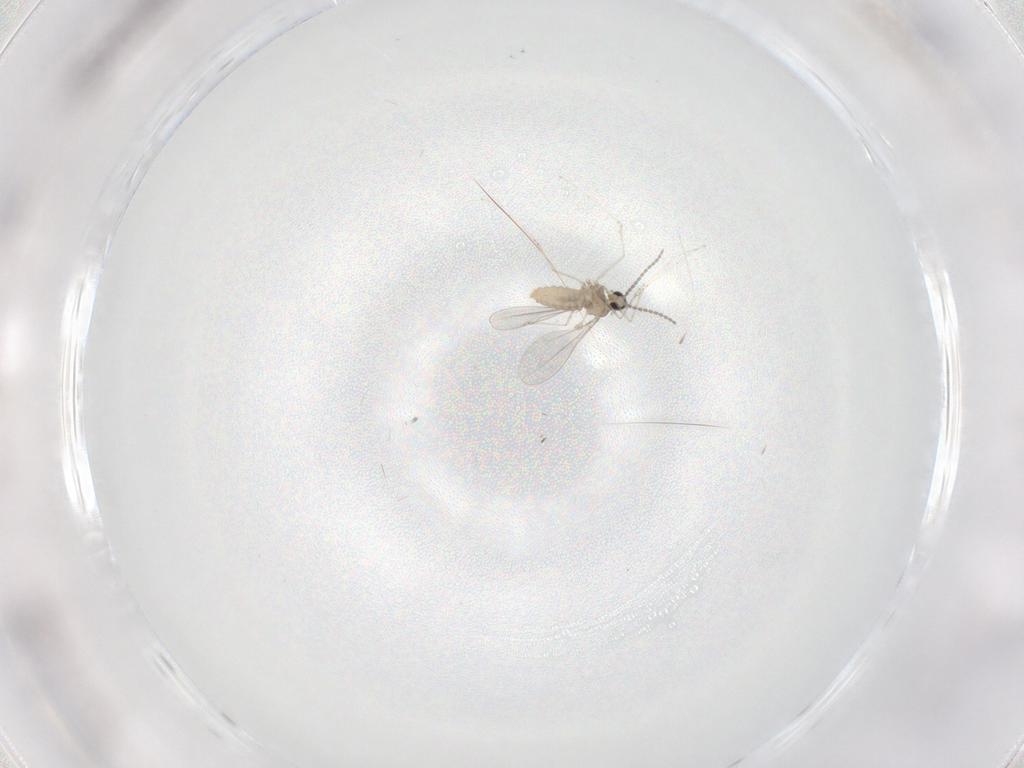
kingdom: Animalia
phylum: Arthropoda
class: Insecta
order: Diptera
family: Cecidomyiidae
